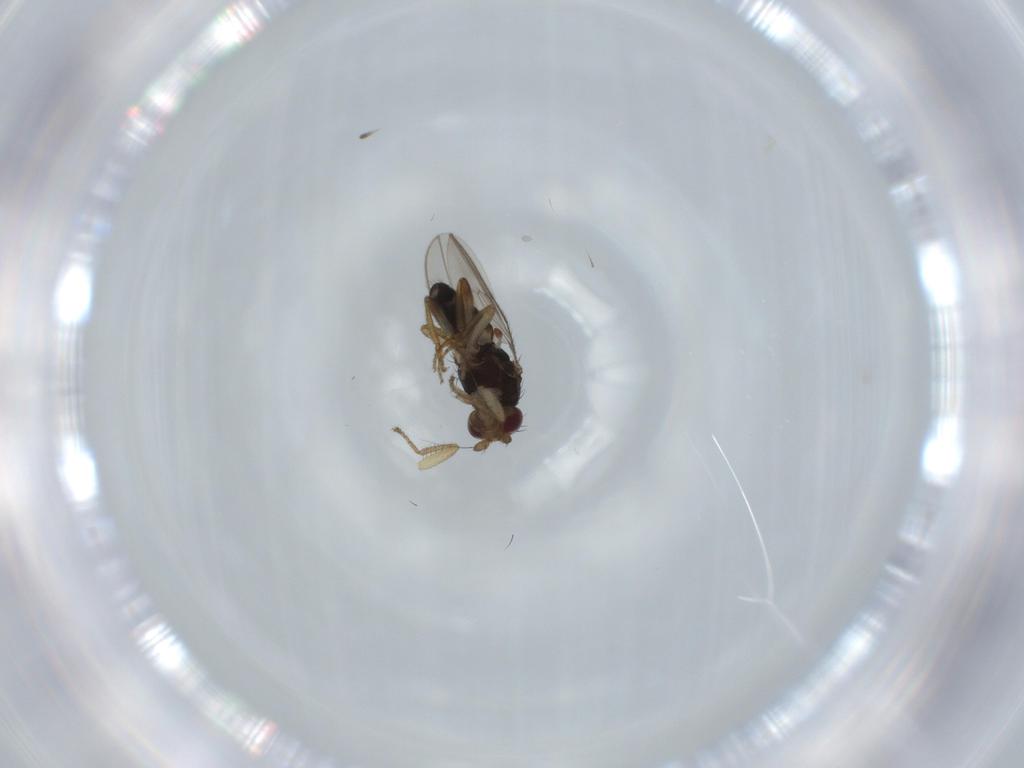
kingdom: Animalia
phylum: Arthropoda
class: Insecta
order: Diptera
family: Sphaeroceridae
